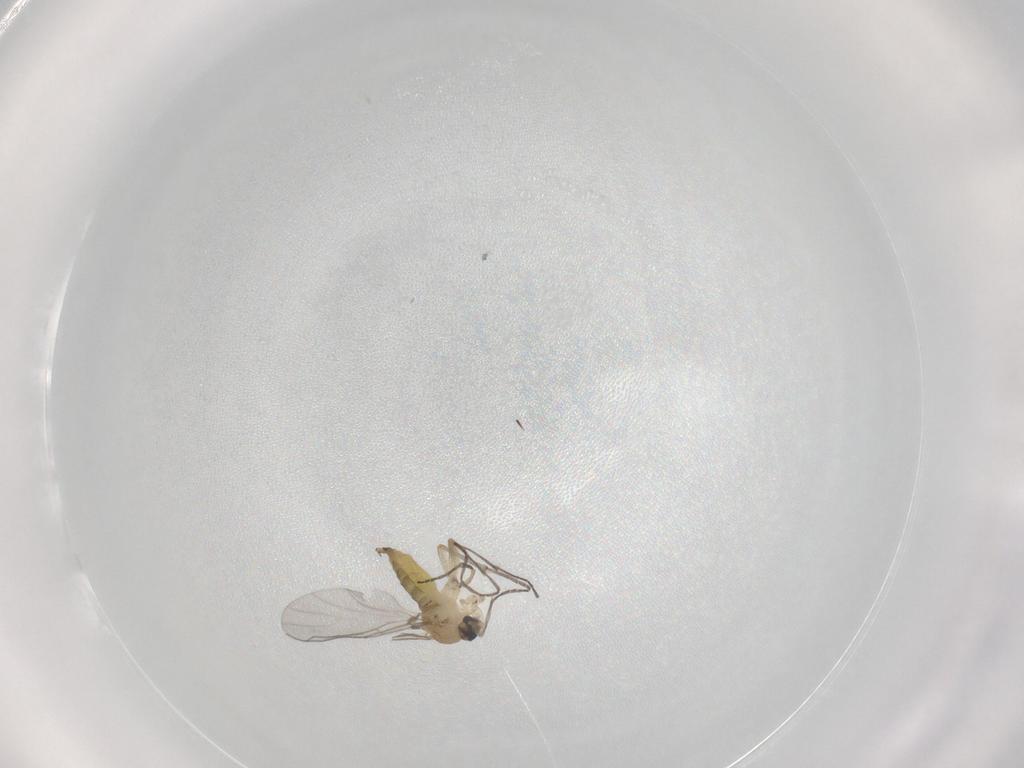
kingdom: Animalia
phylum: Arthropoda
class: Insecta
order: Diptera
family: Sciaridae
